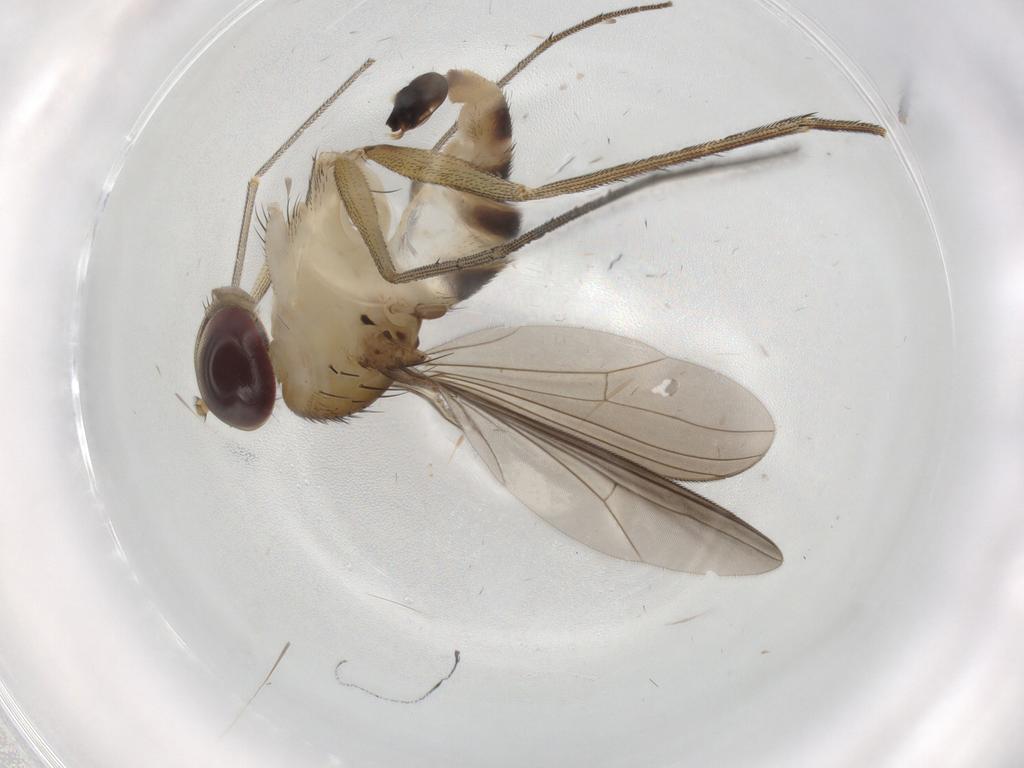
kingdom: Animalia
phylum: Arthropoda
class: Insecta
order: Diptera
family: Dolichopodidae
